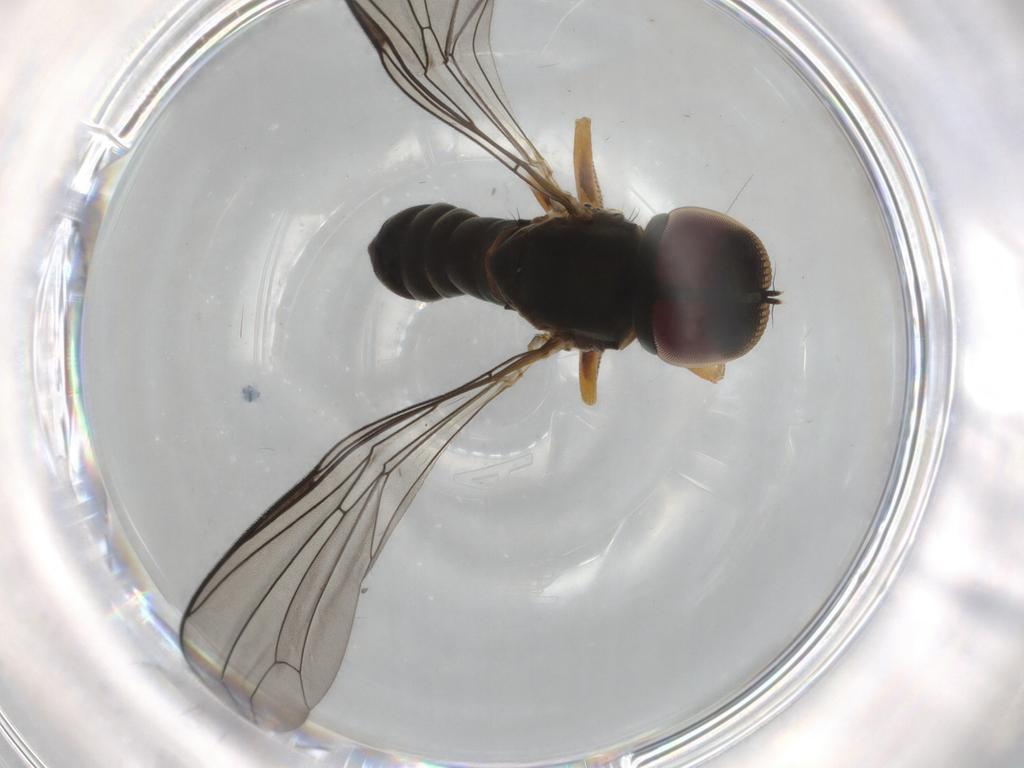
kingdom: Animalia
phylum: Arthropoda
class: Insecta
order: Diptera
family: Pipunculidae
